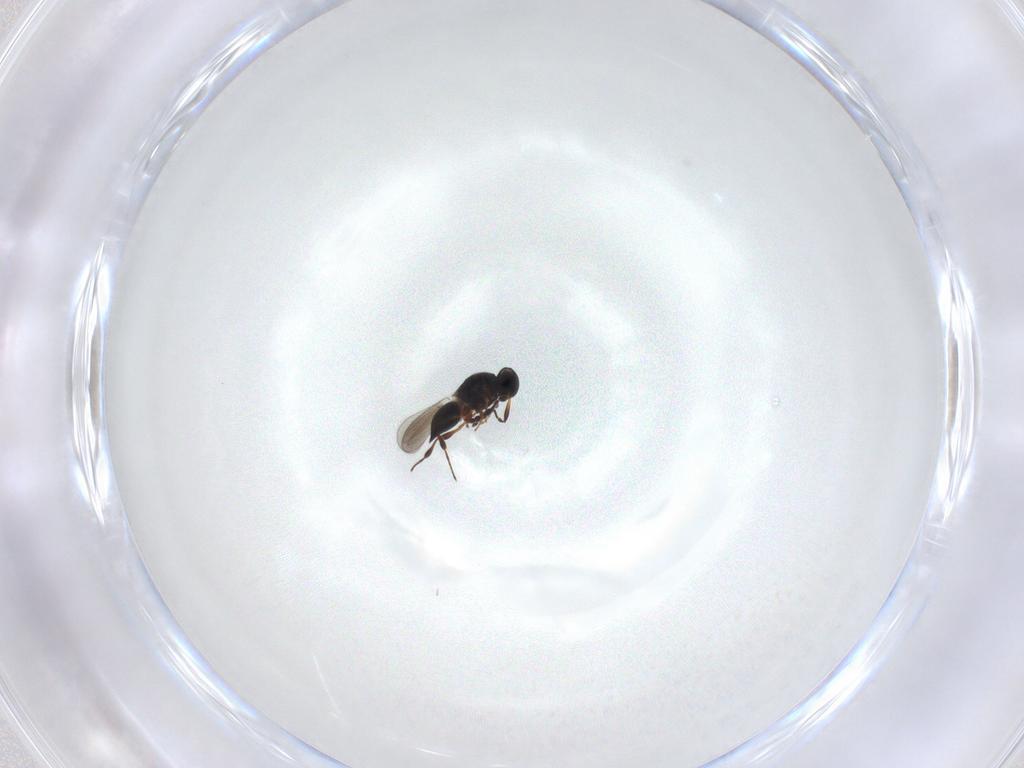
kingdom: Animalia
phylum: Arthropoda
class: Insecta
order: Hymenoptera
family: Platygastridae
